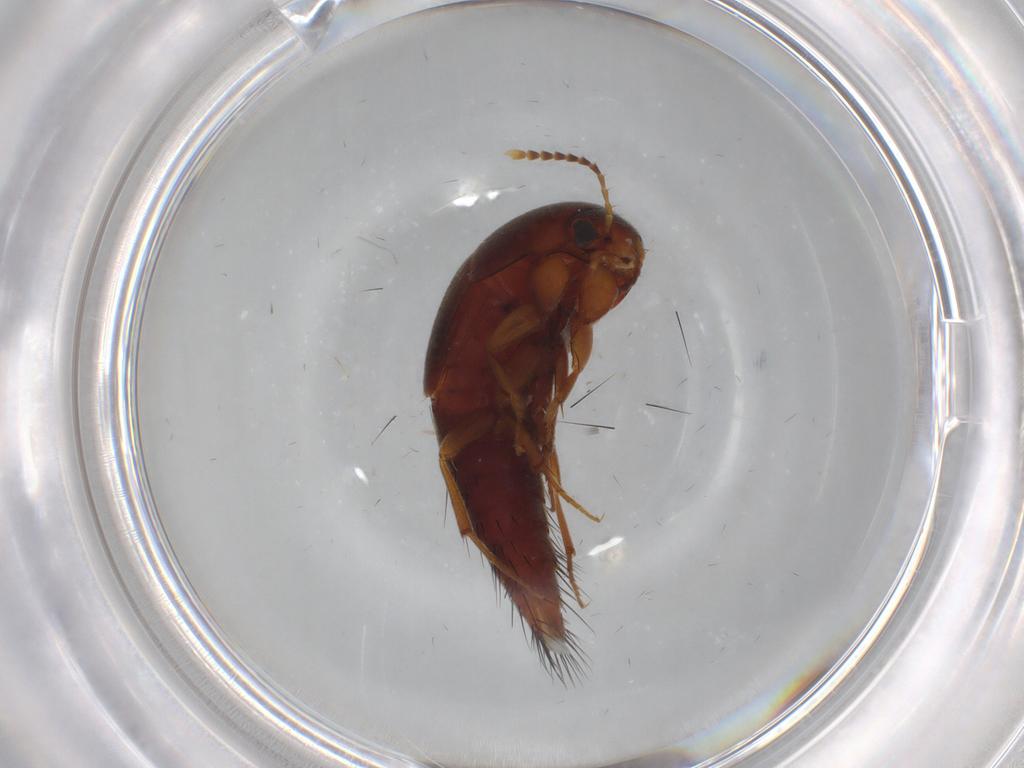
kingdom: Animalia
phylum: Arthropoda
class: Insecta
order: Coleoptera
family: Chrysomelidae
